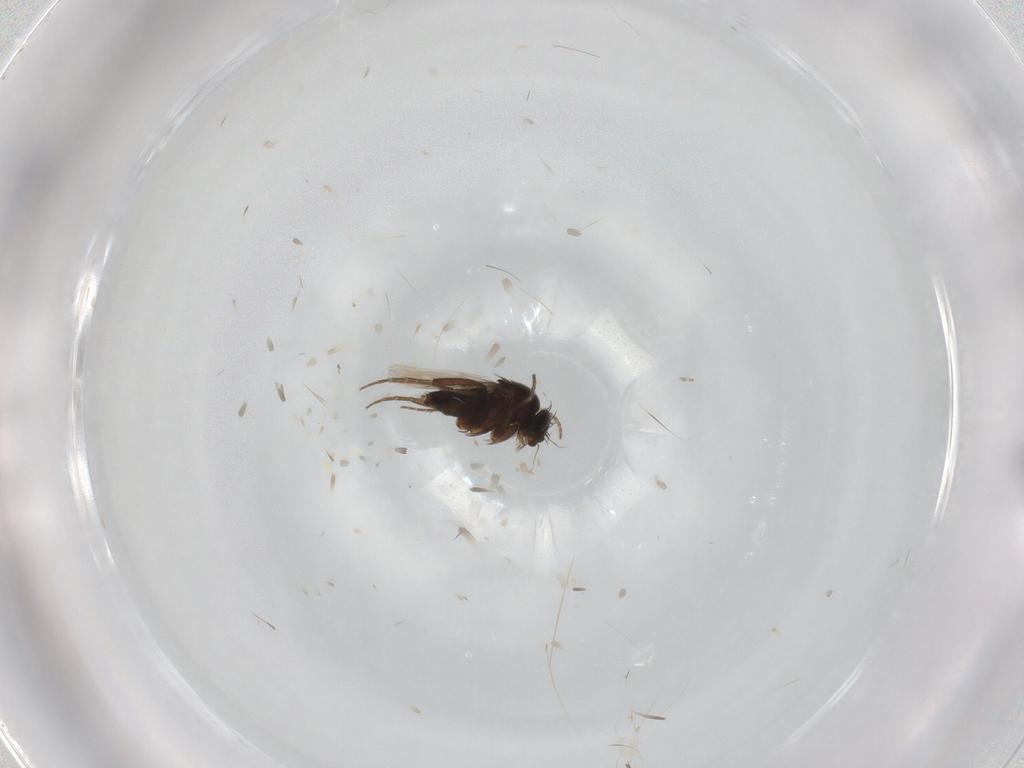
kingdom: Animalia
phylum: Arthropoda
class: Insecta
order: Diptera
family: Phoridae
